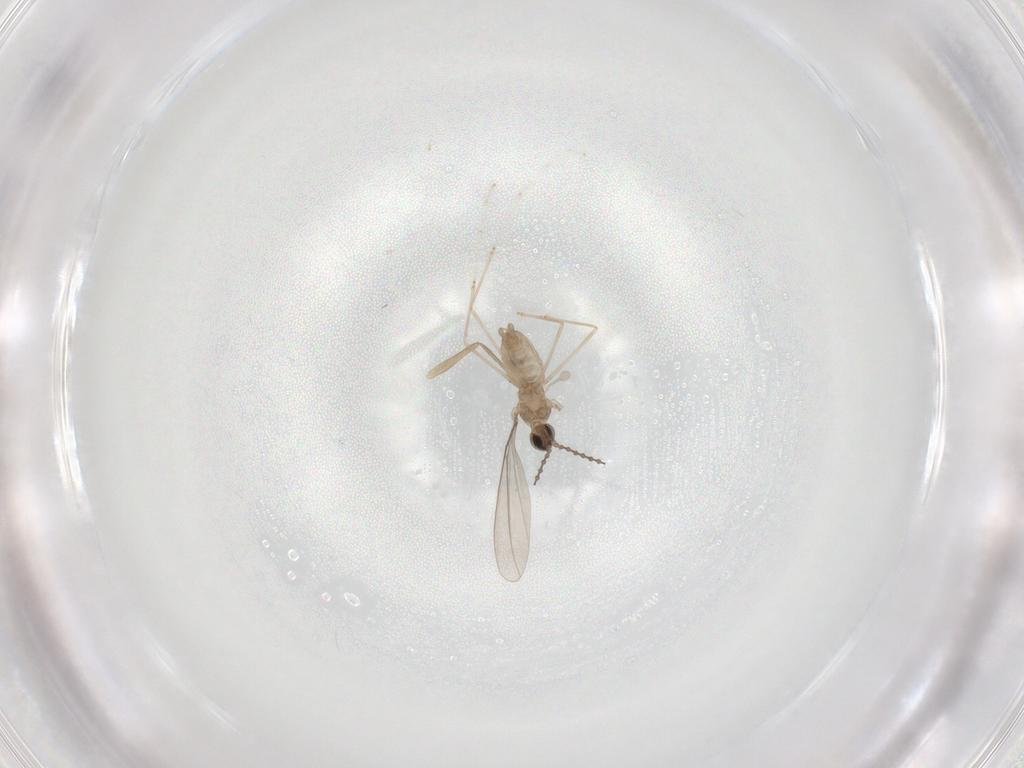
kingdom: Animalia
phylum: Arthropoda
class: Insecta
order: Diptera
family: Cecidomyiidae
